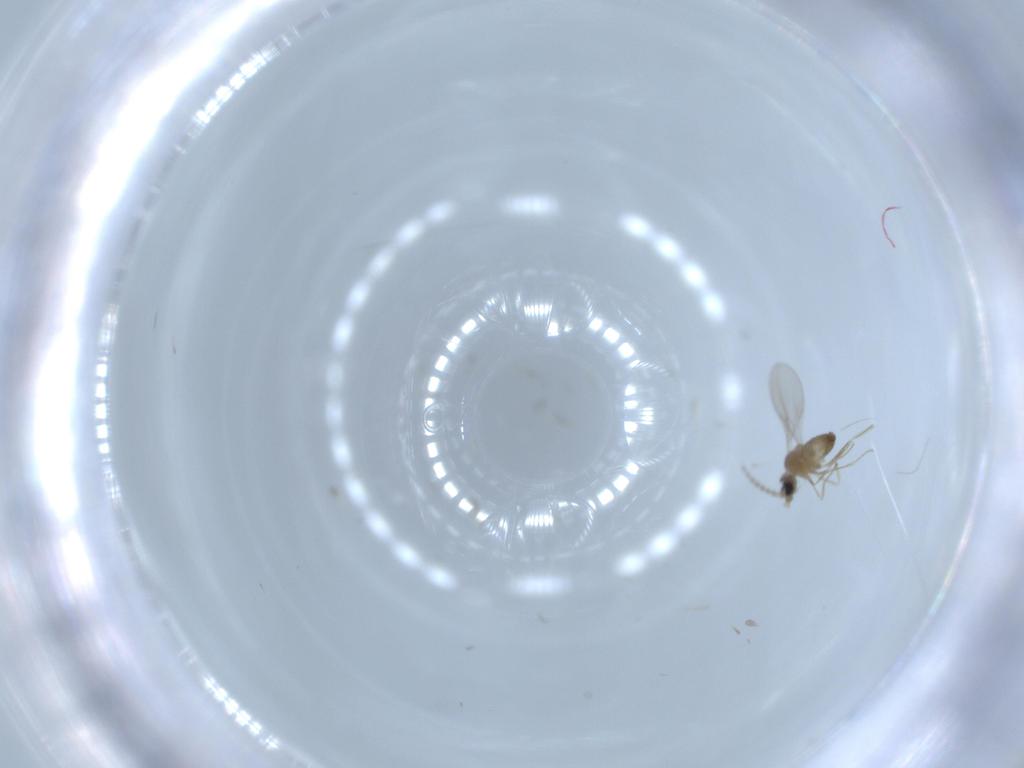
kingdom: Animalia
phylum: Arthropoda
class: Insecta
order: Diptera
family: Cecidomyiidae
